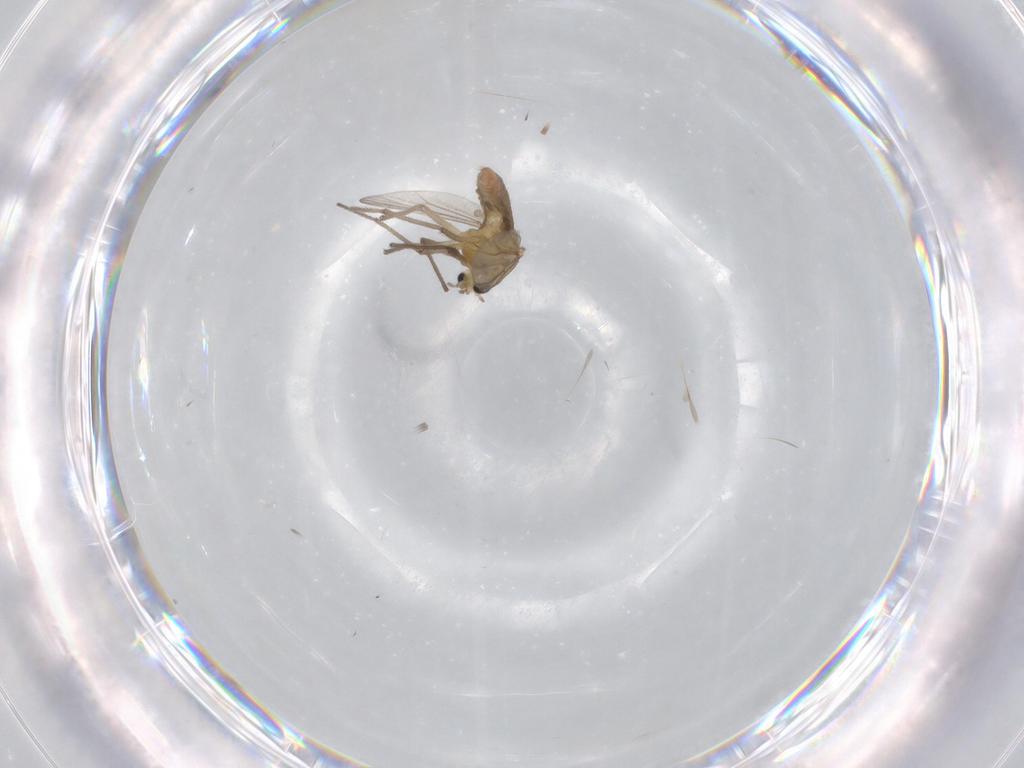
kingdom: Animalia
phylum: Arthropoda
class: Insecta
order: Diptera
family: Chironomidae
